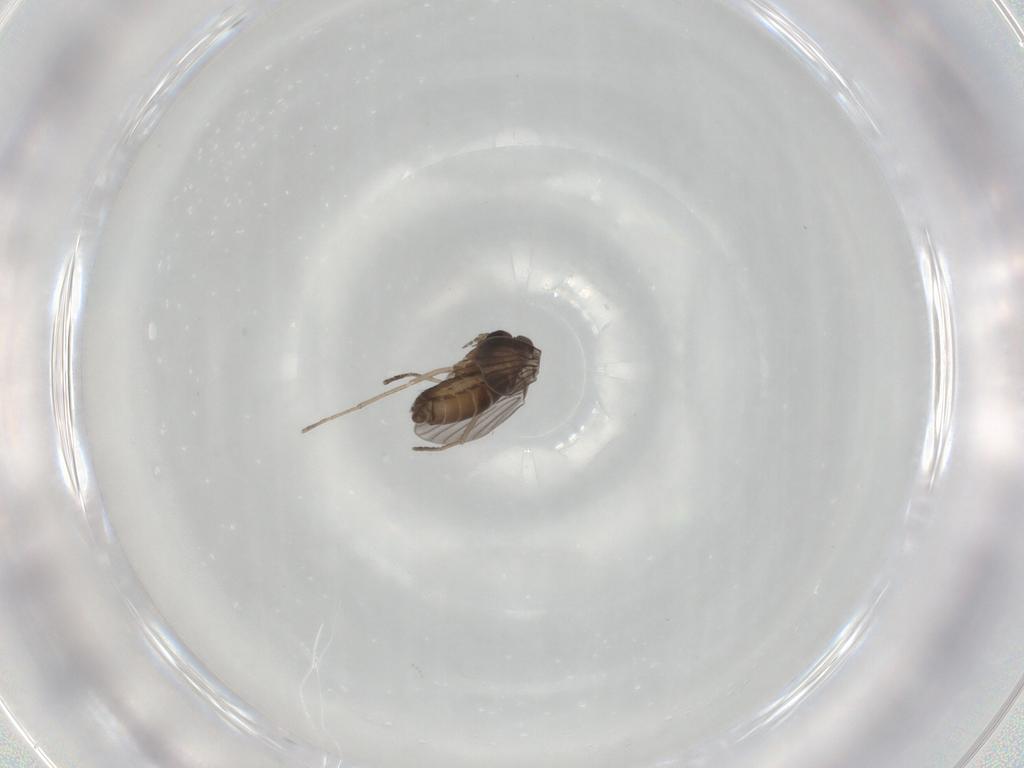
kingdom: Animalia
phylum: Arthropoda
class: Insecta
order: Diptera
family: Psychodidae
